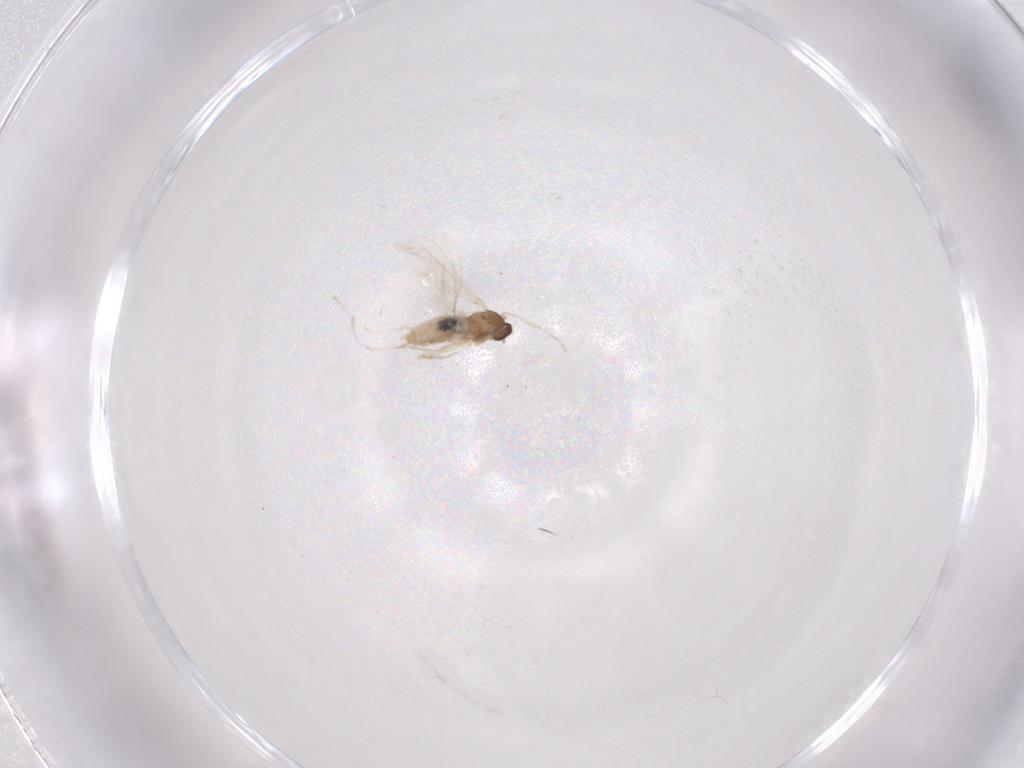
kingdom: Animalia
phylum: Arthropoda
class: Insecta
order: Diptera
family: Cecidomyiidae
